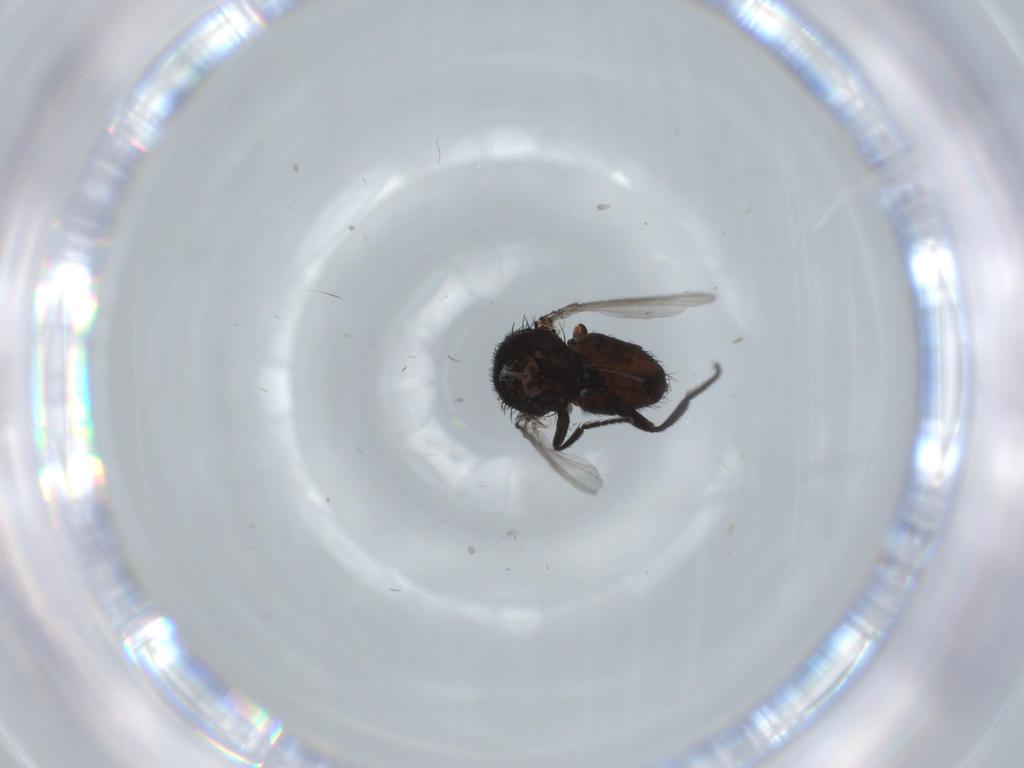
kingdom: Animalia
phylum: Arthropoda
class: Insecta
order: Diptera
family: Milichiidae
